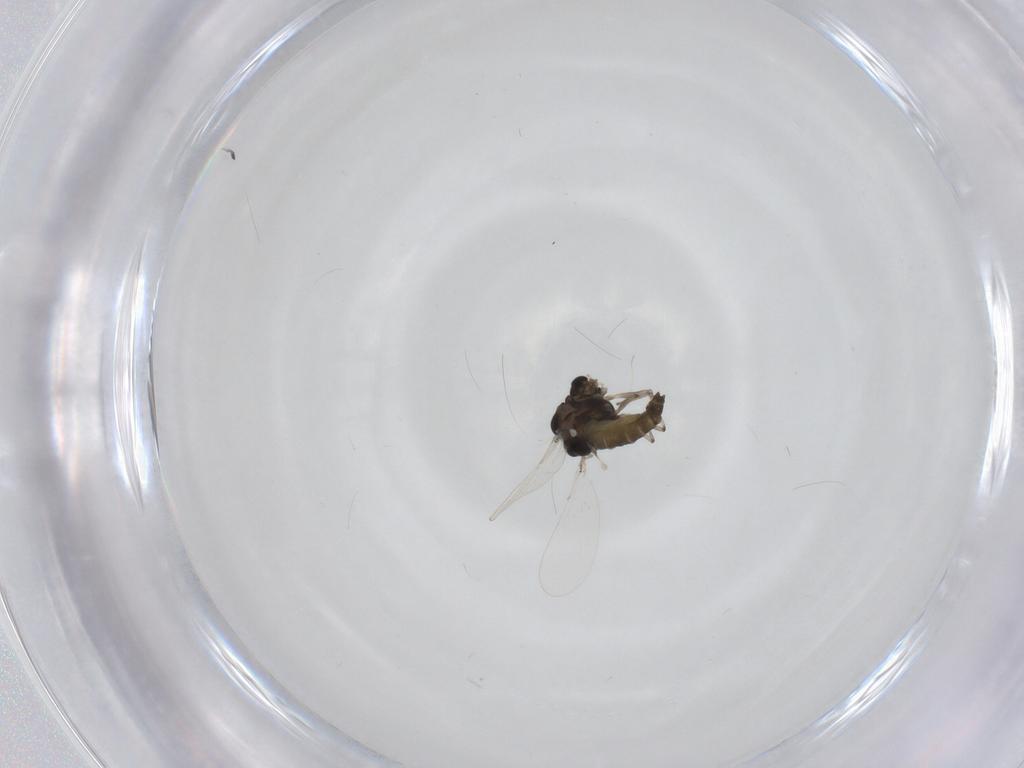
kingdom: Animalia
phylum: Arthropoda
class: Insecta
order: Diptera
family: Chironomidae
